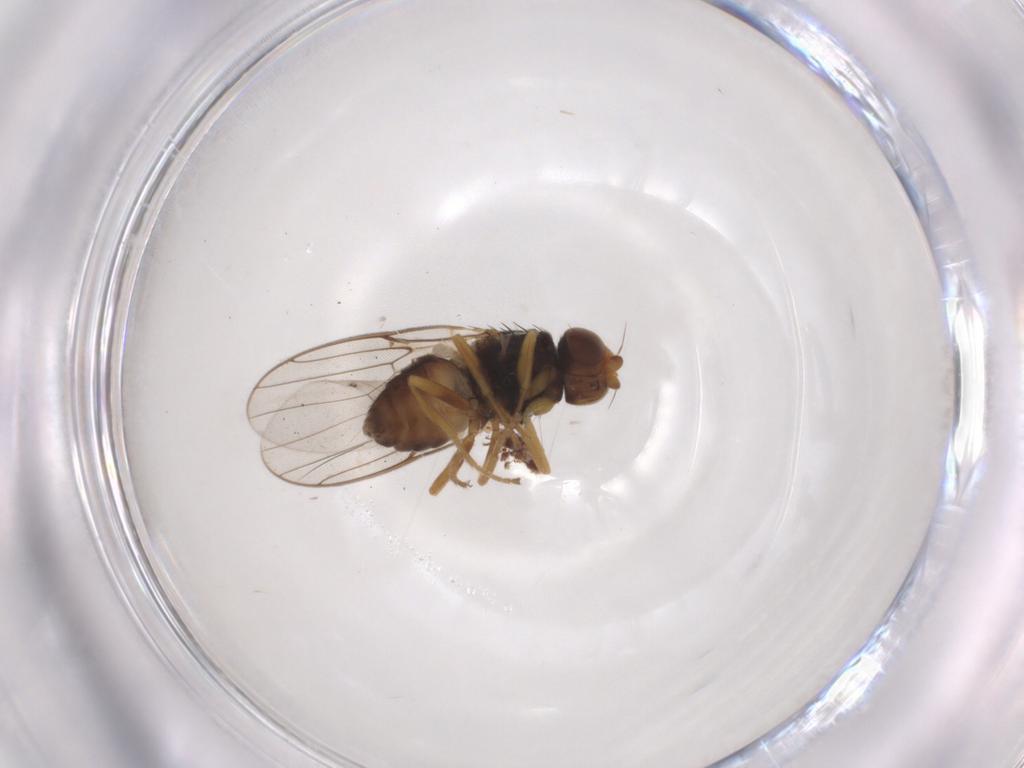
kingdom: Animalia
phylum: Arthropoda
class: Insecta
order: Diptera
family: Chloropidae
